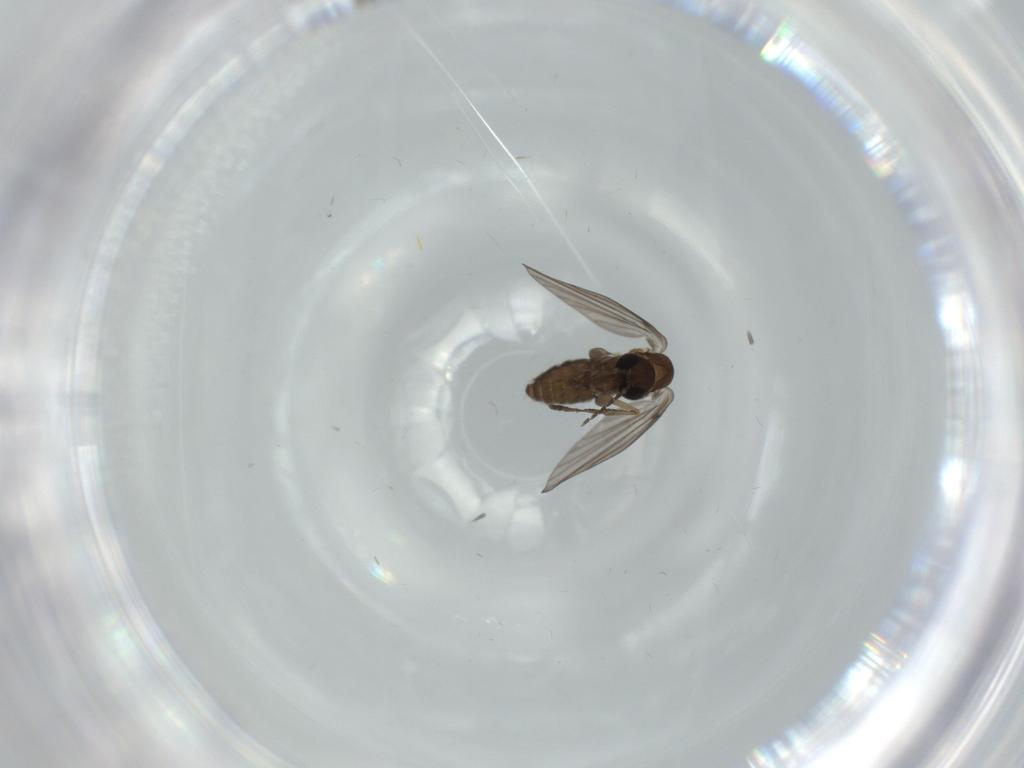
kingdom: Animalia
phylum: Arthropoda
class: Insecta
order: Diptera
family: Psychodidae
